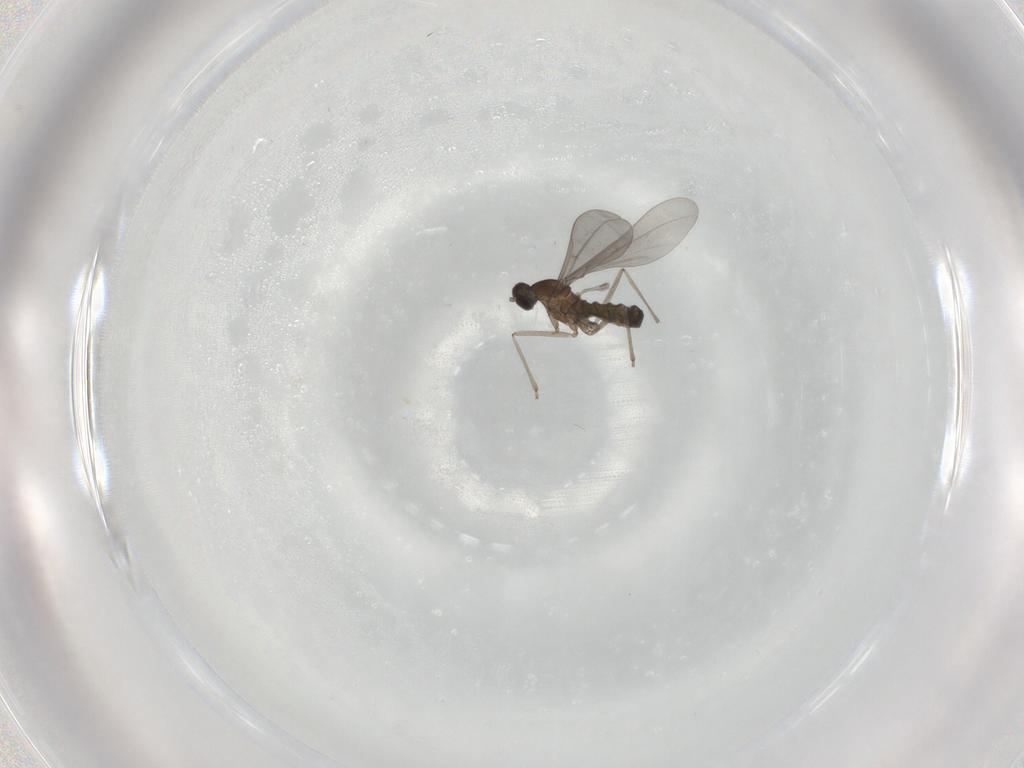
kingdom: Animalia
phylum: Arthropoda
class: Insecta
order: Diptera
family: Cecidomyiidae
